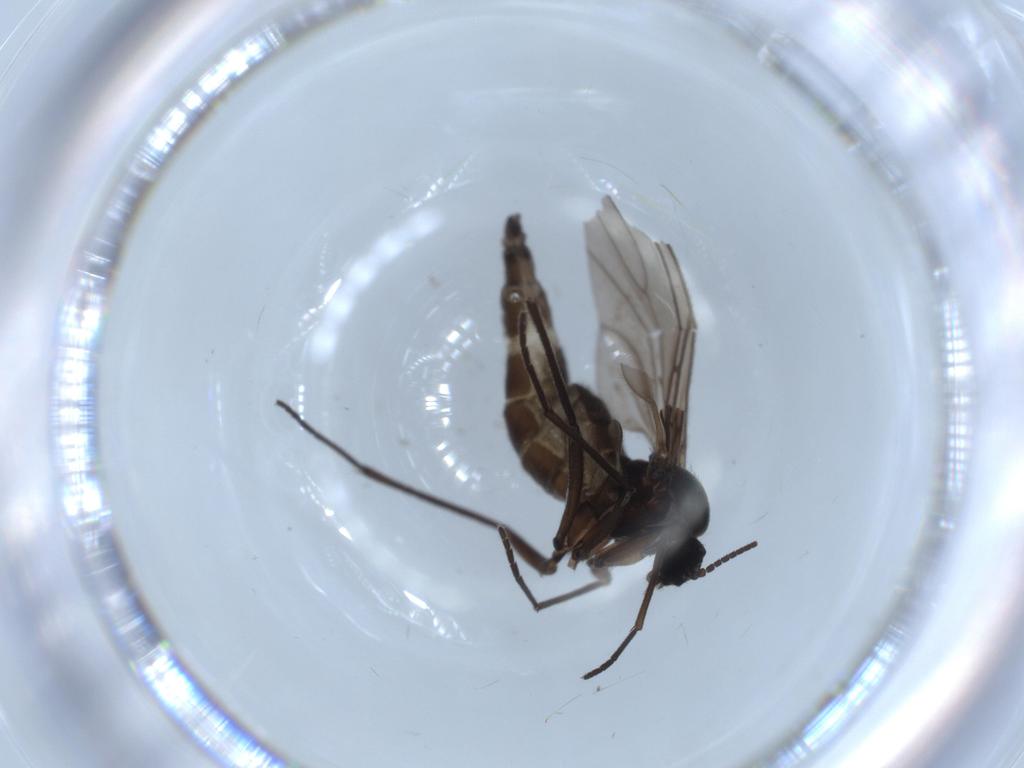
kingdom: Animalia
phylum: Arthropoda
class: Insecta
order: Diptera
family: Sciaridae
